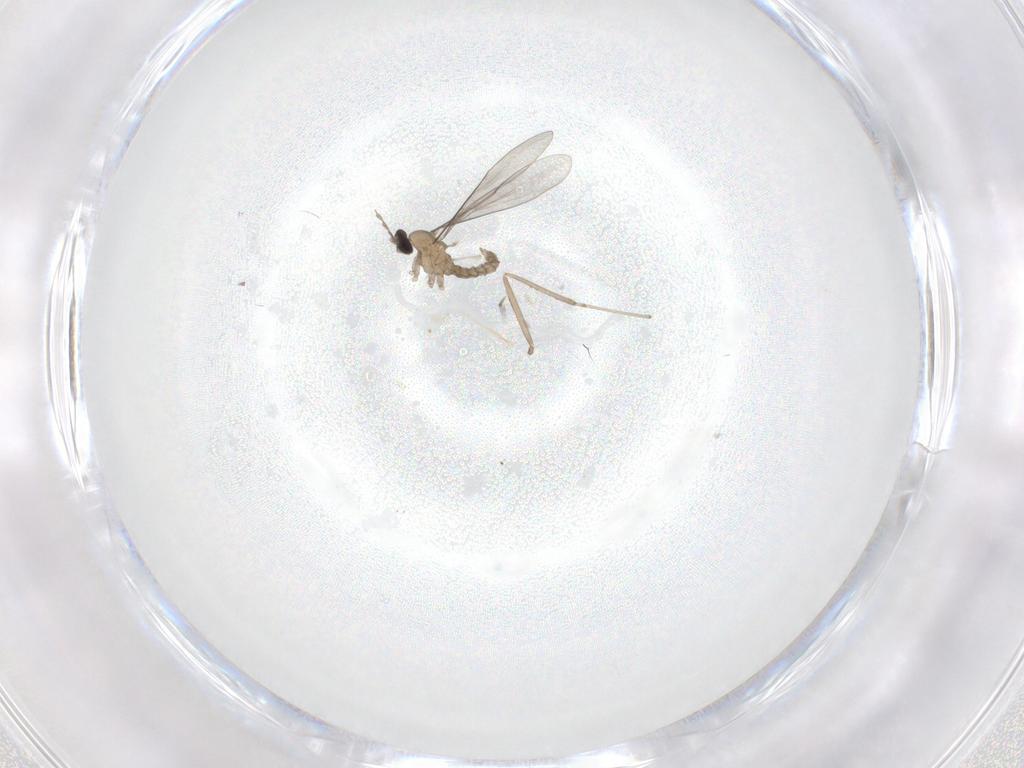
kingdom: Animalia
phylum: Arthropoda
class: Insecta
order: Diptera
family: Cecidomyiidae
